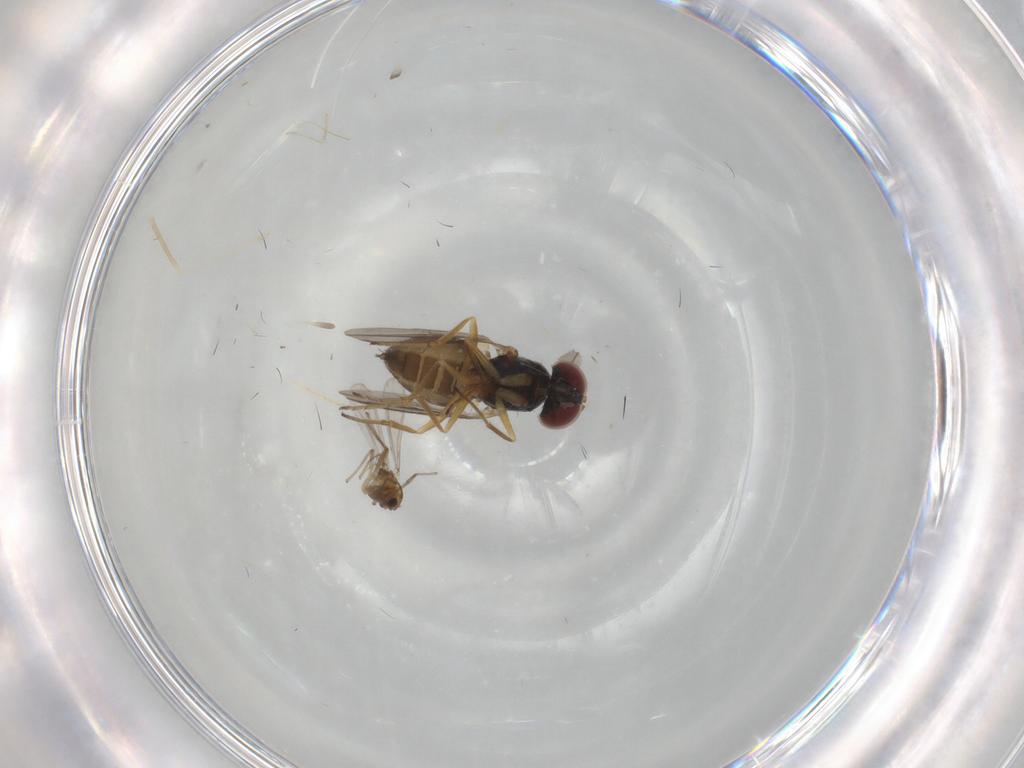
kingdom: Animalia
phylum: Arthropoda
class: Insecta
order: Diptera
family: Dolichopodidae
